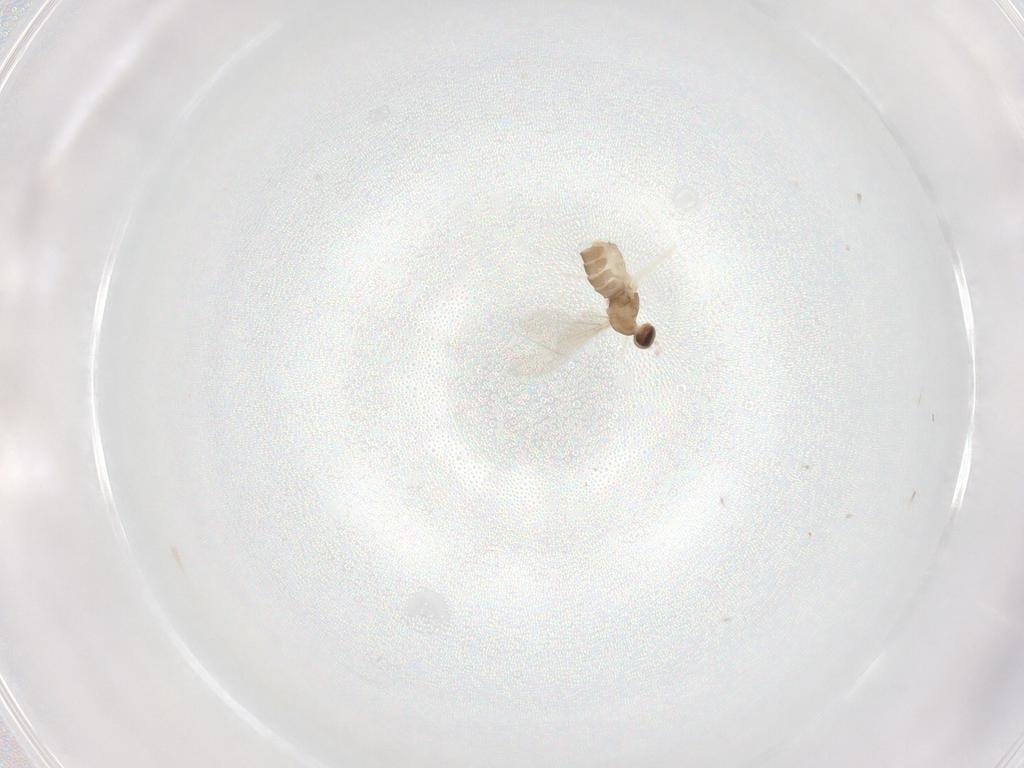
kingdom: Animalia
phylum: Arthropoda
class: Insecta
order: Diptera
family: Cecidomyiidae
